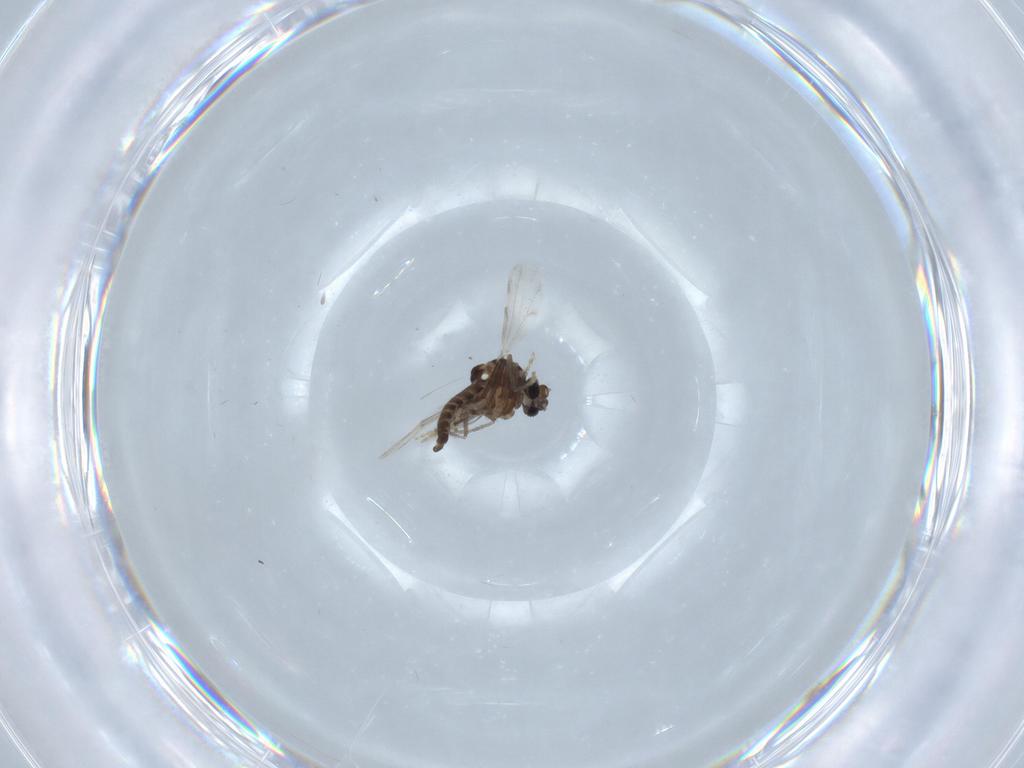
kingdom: Animalia
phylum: Arthropoda
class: Insecta
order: Diptera
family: Ceratopogonidae
